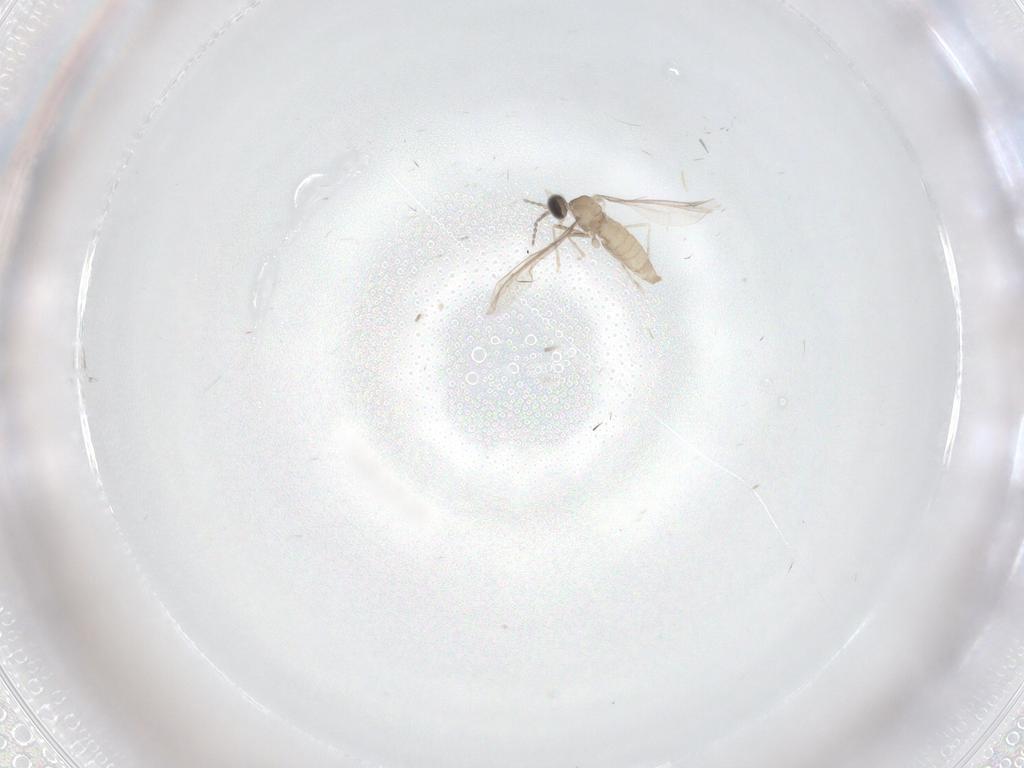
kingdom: Animalia
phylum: Arthropoda
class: Insecta
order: Diptera
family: Cecidomyiidae
